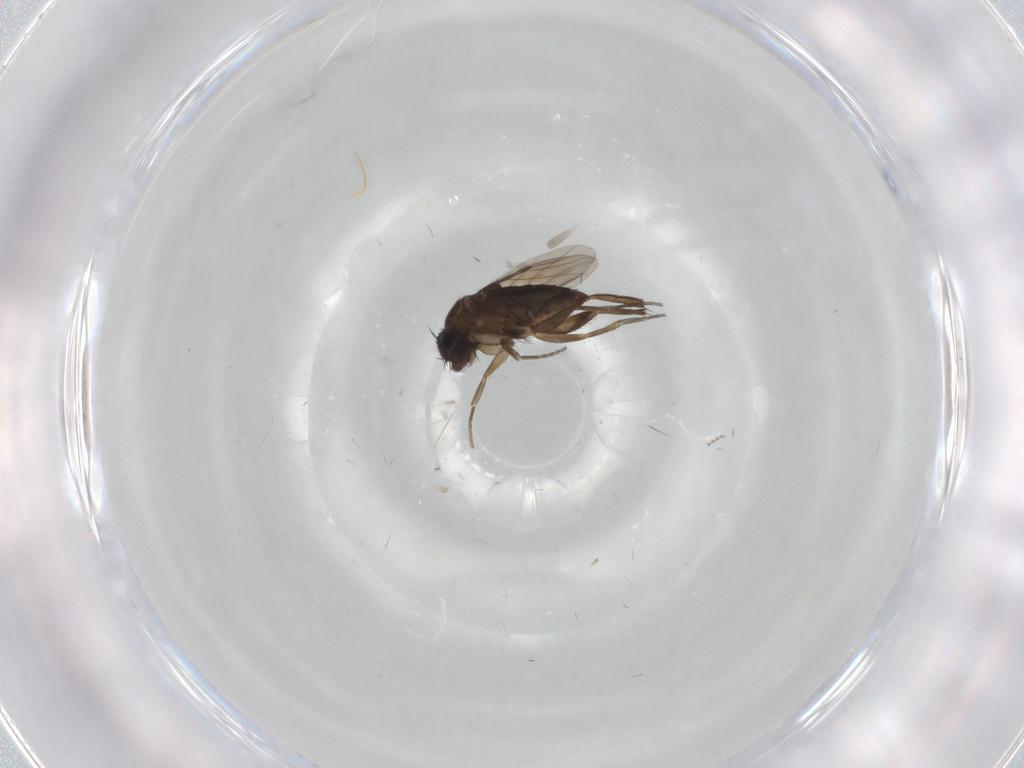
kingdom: Animalia
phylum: Arthropoda
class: Insecta
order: Diptera
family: Phoridae
